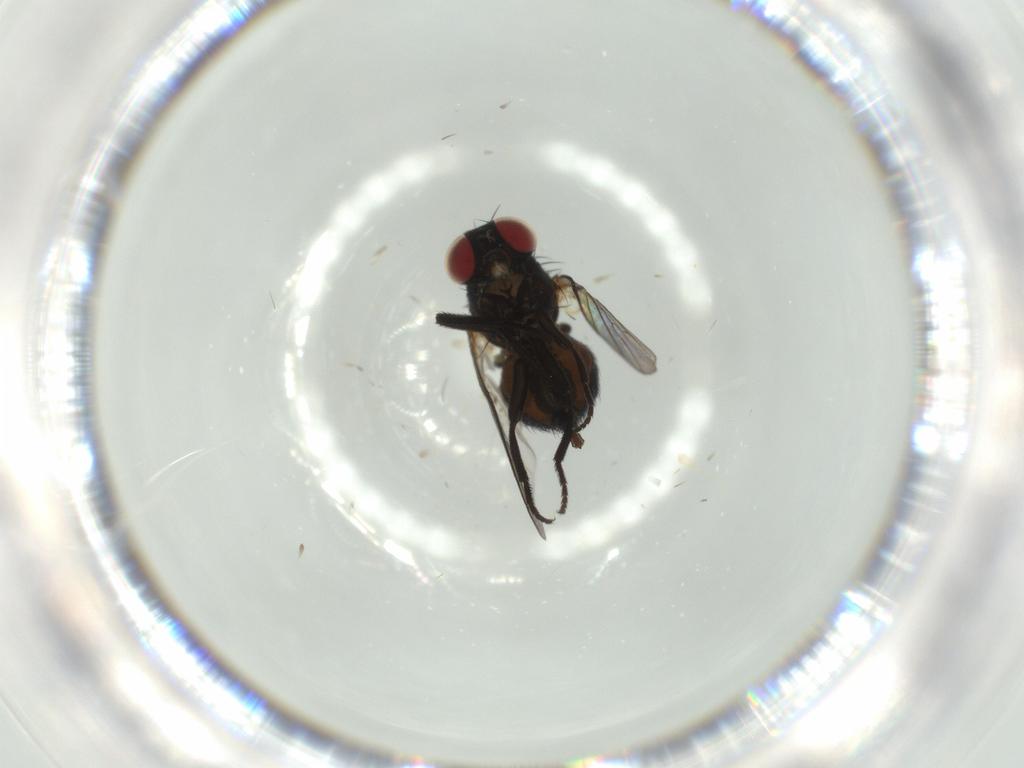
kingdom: Animalia
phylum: Arthropoda
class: Insecta
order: Diptera
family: Agromyzidae
